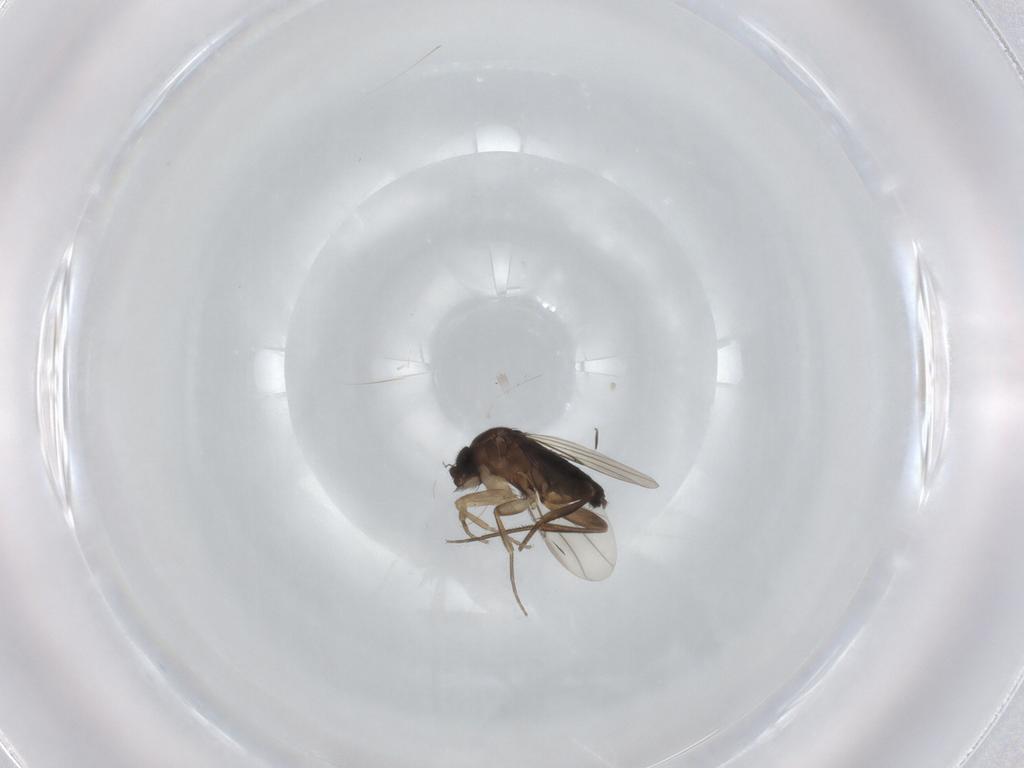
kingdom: Animalia
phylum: Arthropoda
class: Insecta
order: Diptera
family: Phoridae
